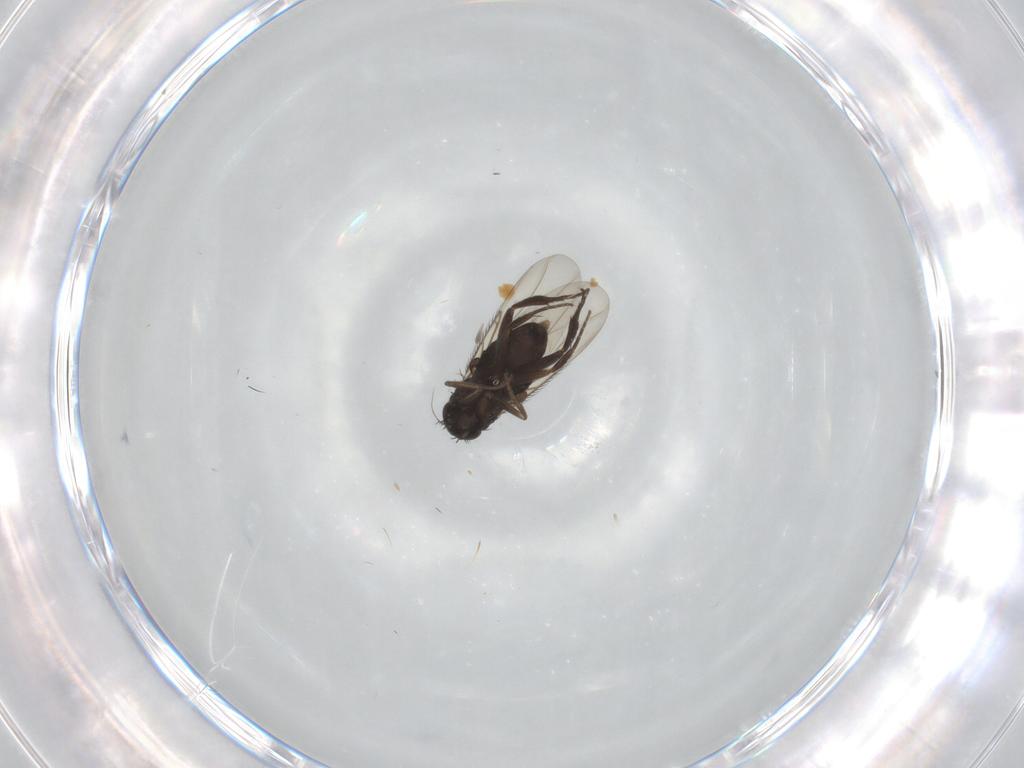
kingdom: Animalia
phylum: Arthropoda
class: Insecta
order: Diptera
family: Phoridae
